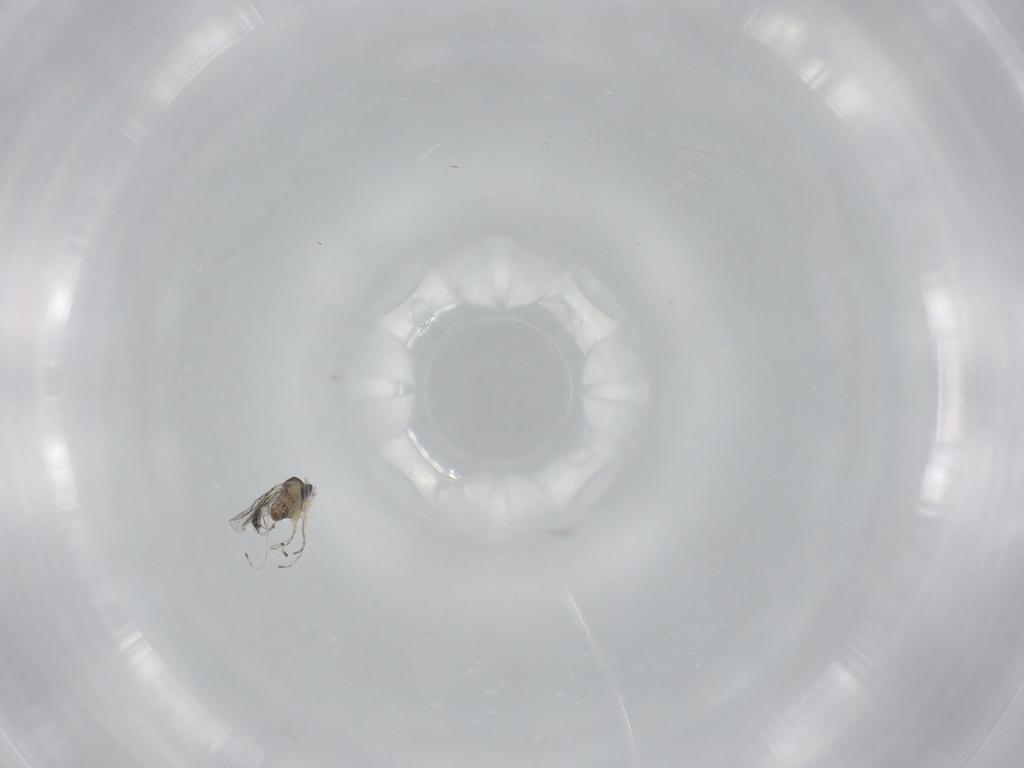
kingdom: Animalia
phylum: Arthropoda
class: Insecta
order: Diptera
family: Cecidomyiidae
